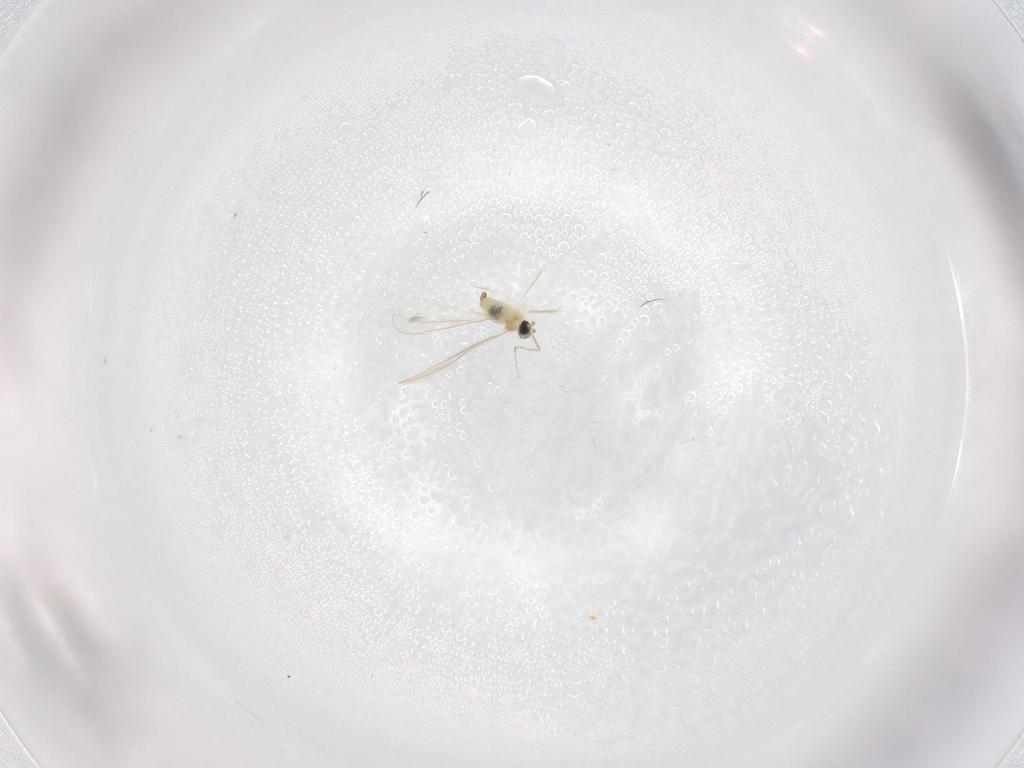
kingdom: Animalia
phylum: Arthropoda
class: Insecta
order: Diptera
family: Cecidomyiidae
